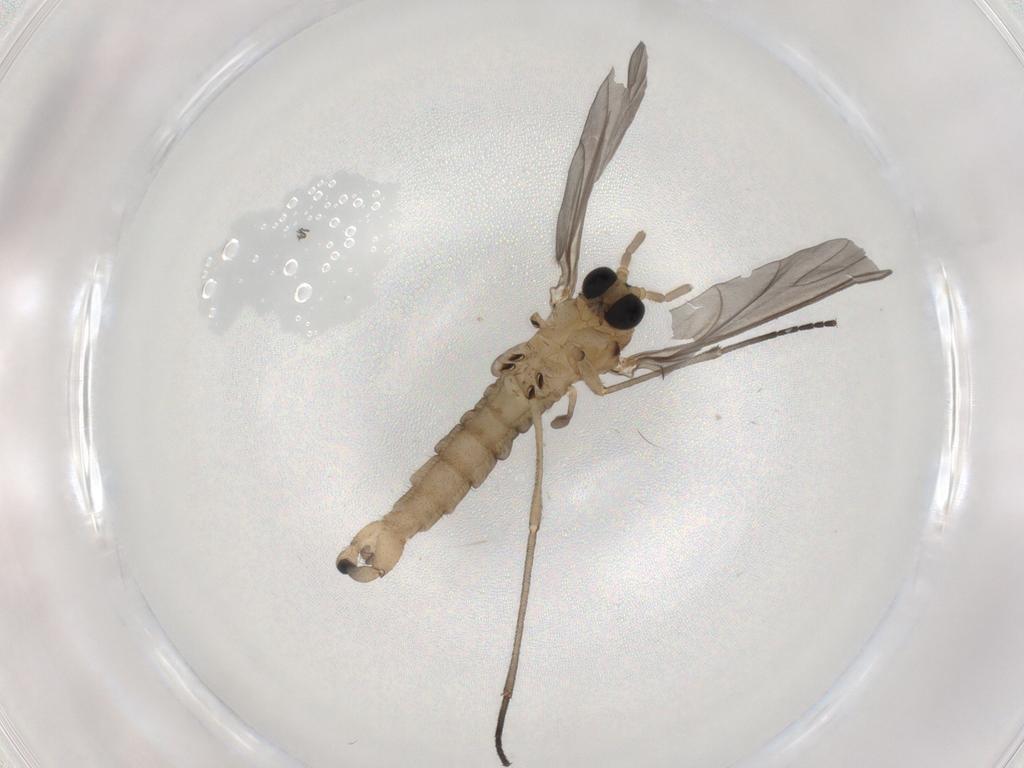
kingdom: Animalia
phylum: Arthropoda
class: Insecta
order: Diptera
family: Sciaridae
